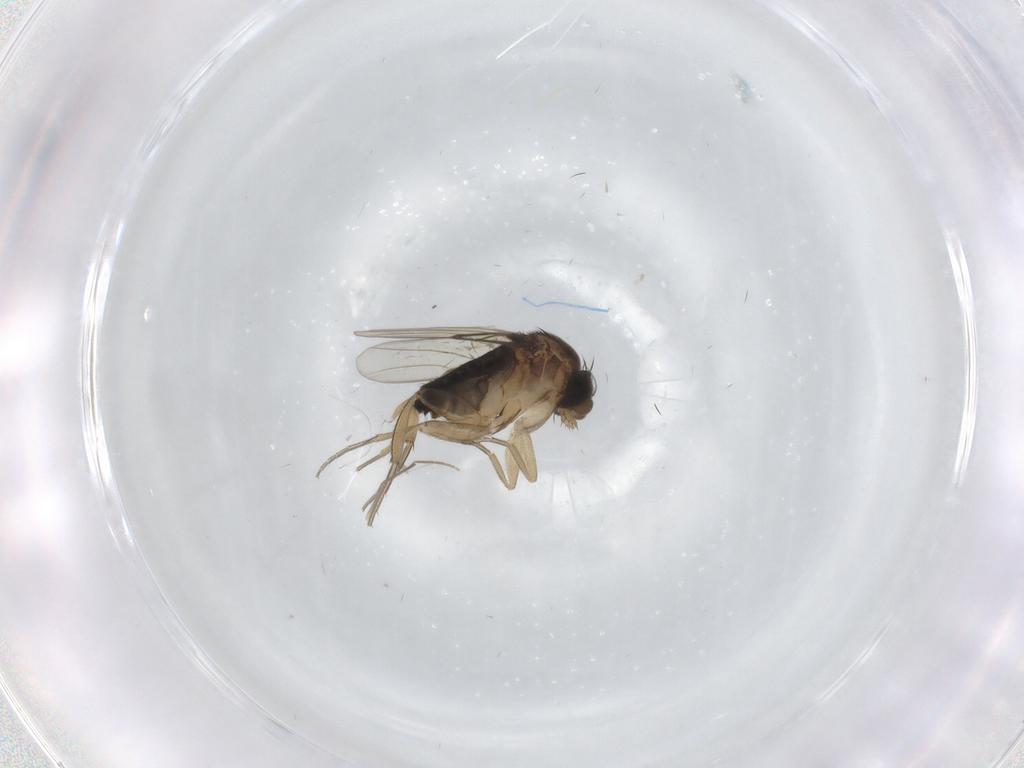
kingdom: Animalia
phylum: Arthropoda
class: Insecta
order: Diptera
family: Phoridae
